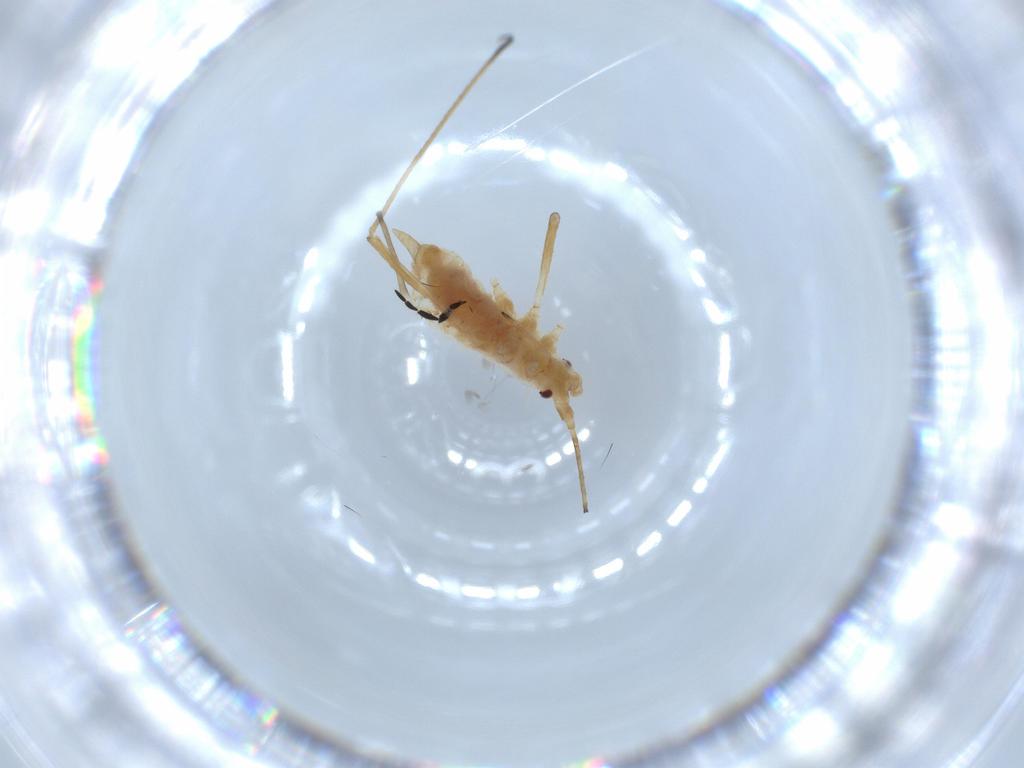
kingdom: Animalia
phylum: Arthropoda
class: Insecta
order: Hemiptera
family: Aphididae
